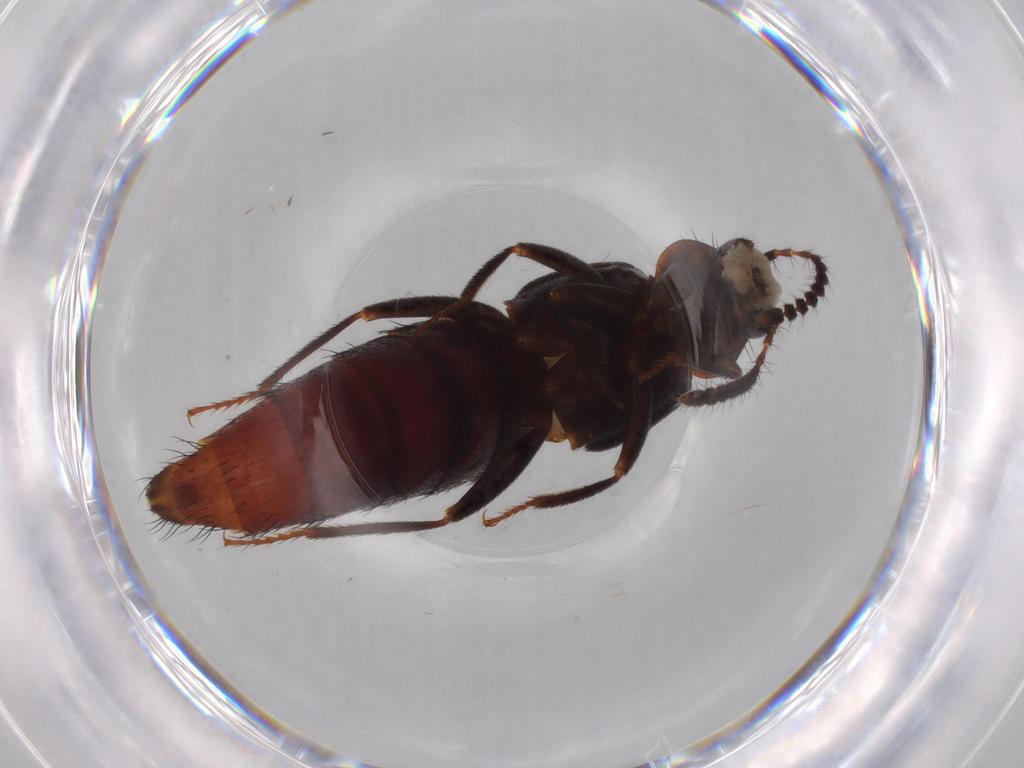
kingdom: Animalia
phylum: Arthropoda
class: Insecta
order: Coleoptera
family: Staphylinidae
